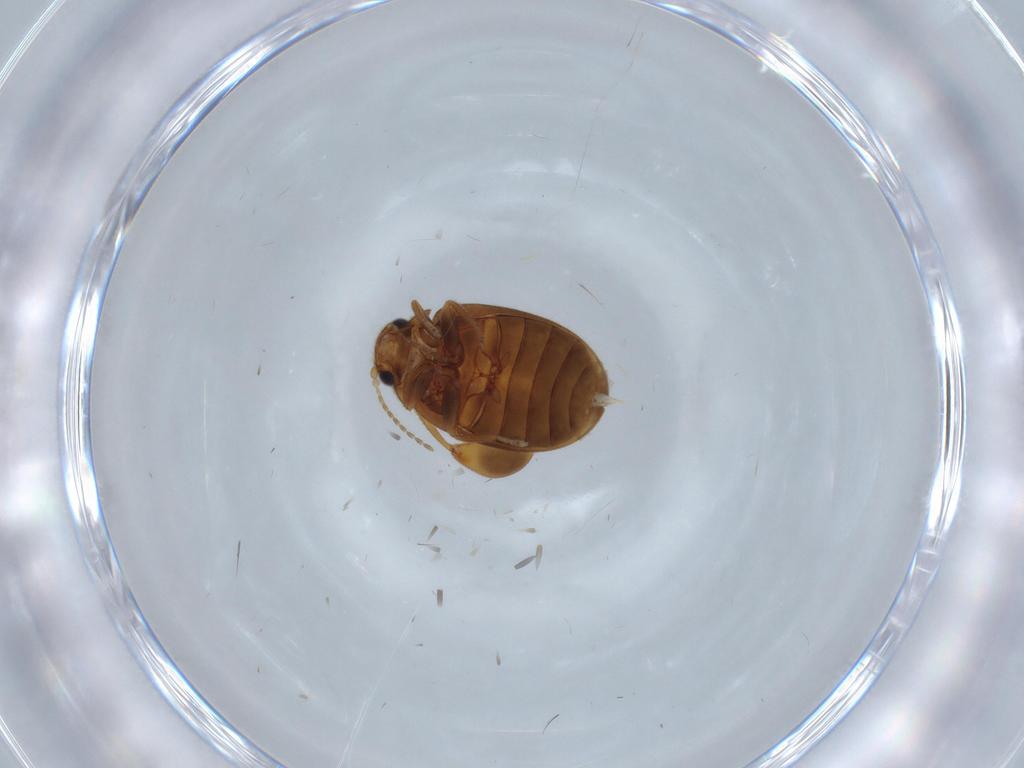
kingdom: Animalia
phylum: Arthropoda
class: Insecta
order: Coleoptera
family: Scirtidae
